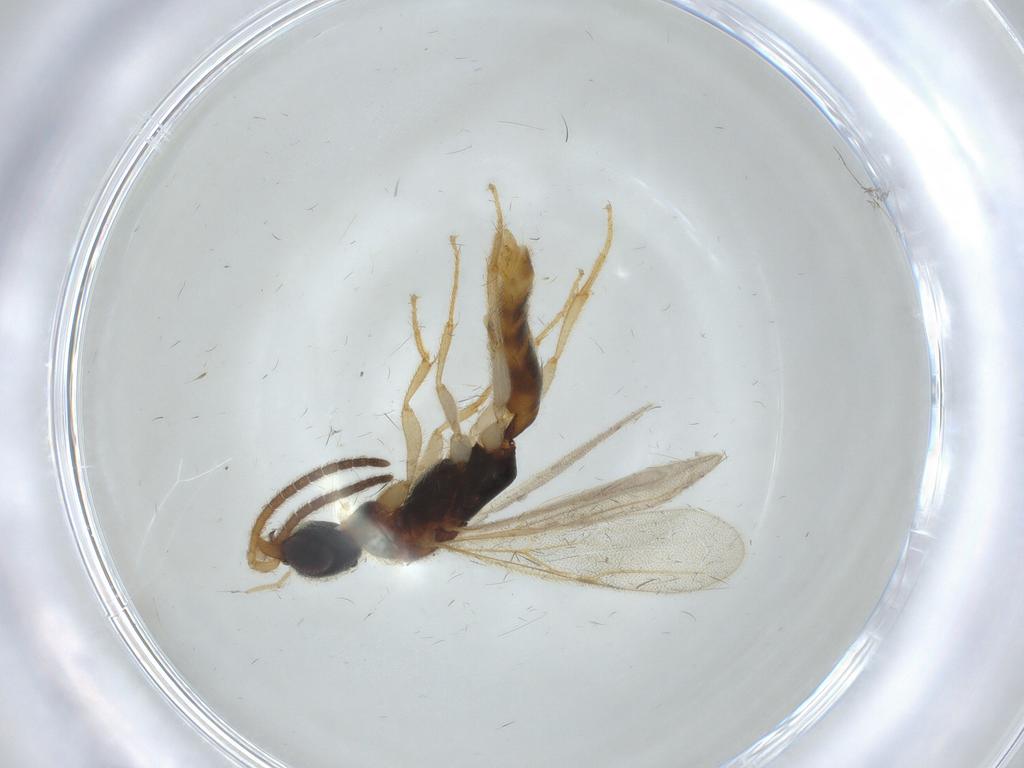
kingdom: Animalia
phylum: Arthropoda
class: Insecta
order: Hymenoptera
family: Bethylidae
